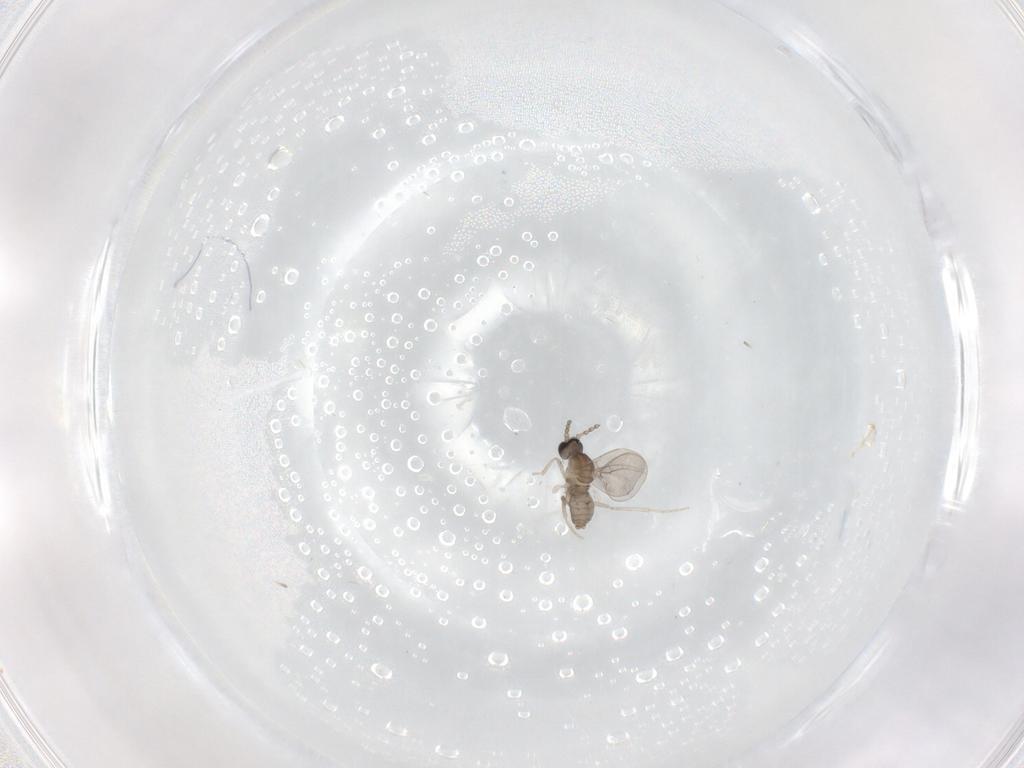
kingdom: Animalia
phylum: Arthropoda
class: Insecta
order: Diptera
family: Cecidomyiidae
